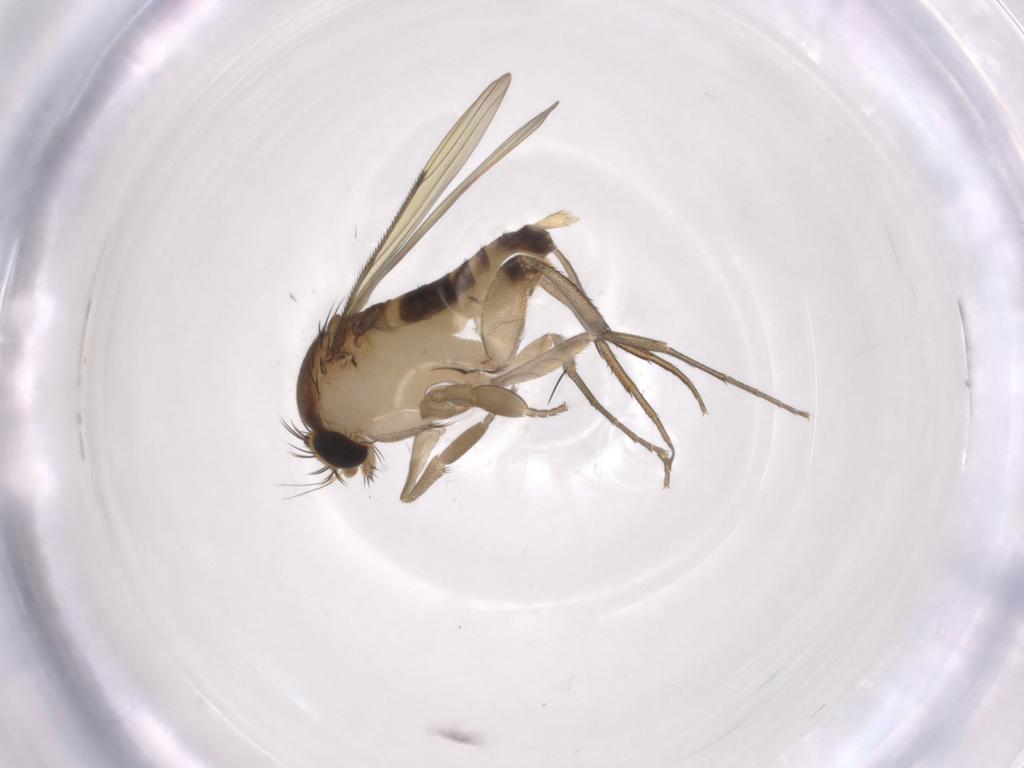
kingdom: Animalia
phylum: Arthropoda
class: Insecta
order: Diptera
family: Phoridae
